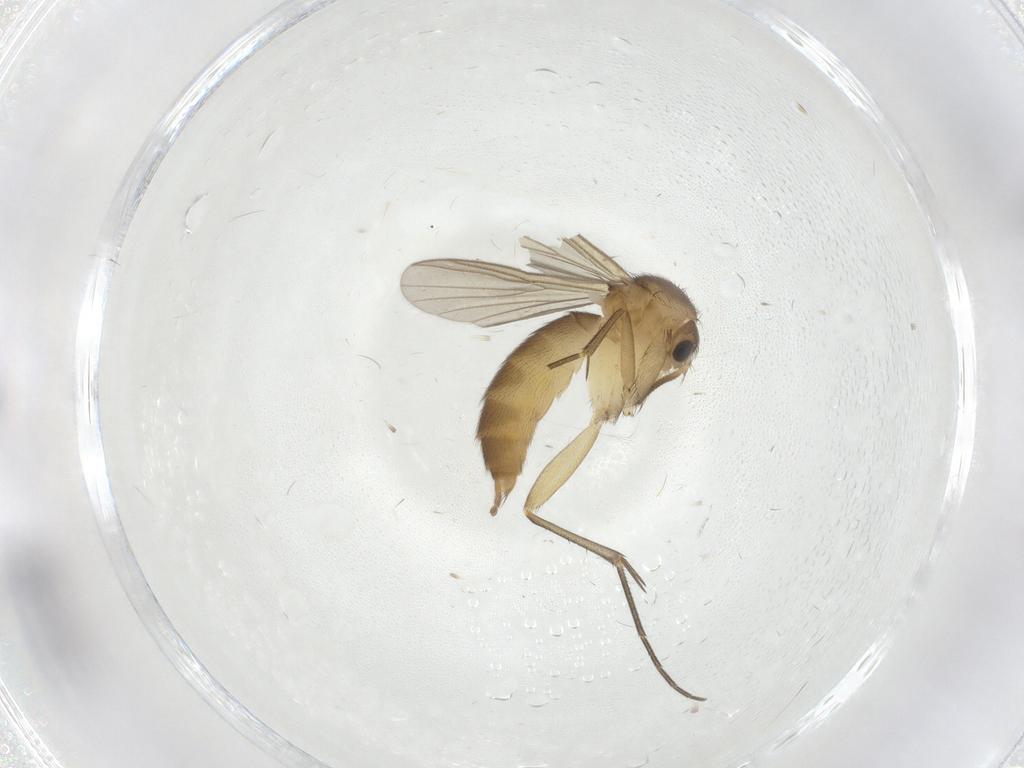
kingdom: Animalia
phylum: Arthropoda
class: Insecta
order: Diptera
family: Mycetophilidae
